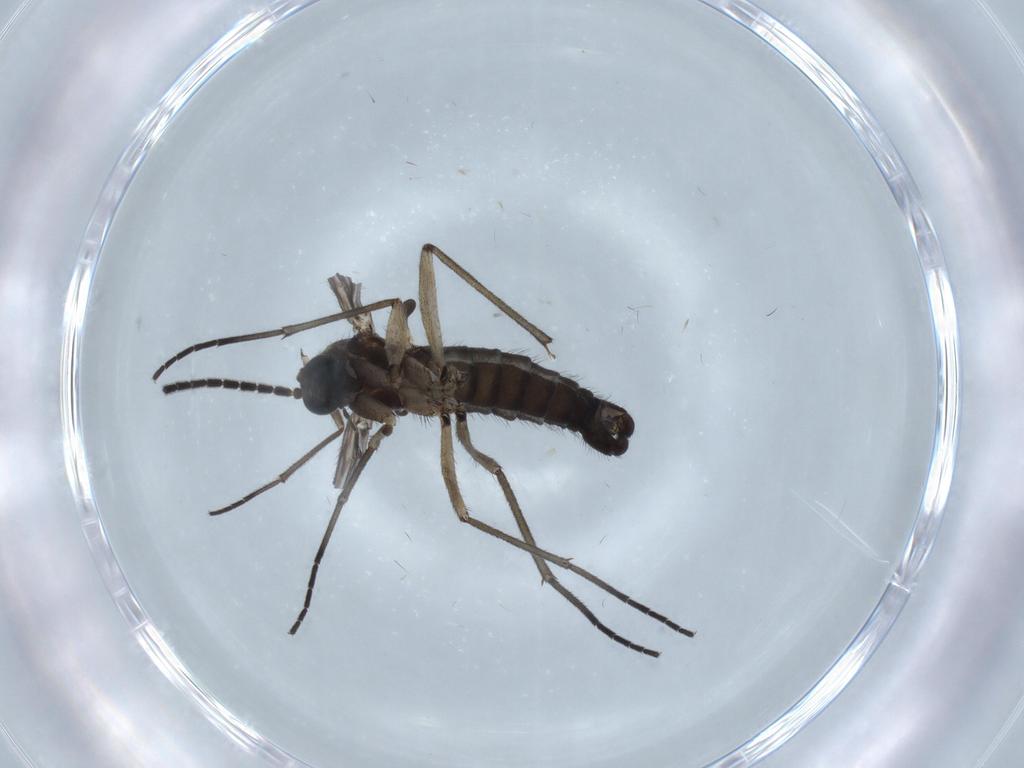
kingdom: Animalia
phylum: Arthropoda
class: Insecta
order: Diptera
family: Sciaridae
